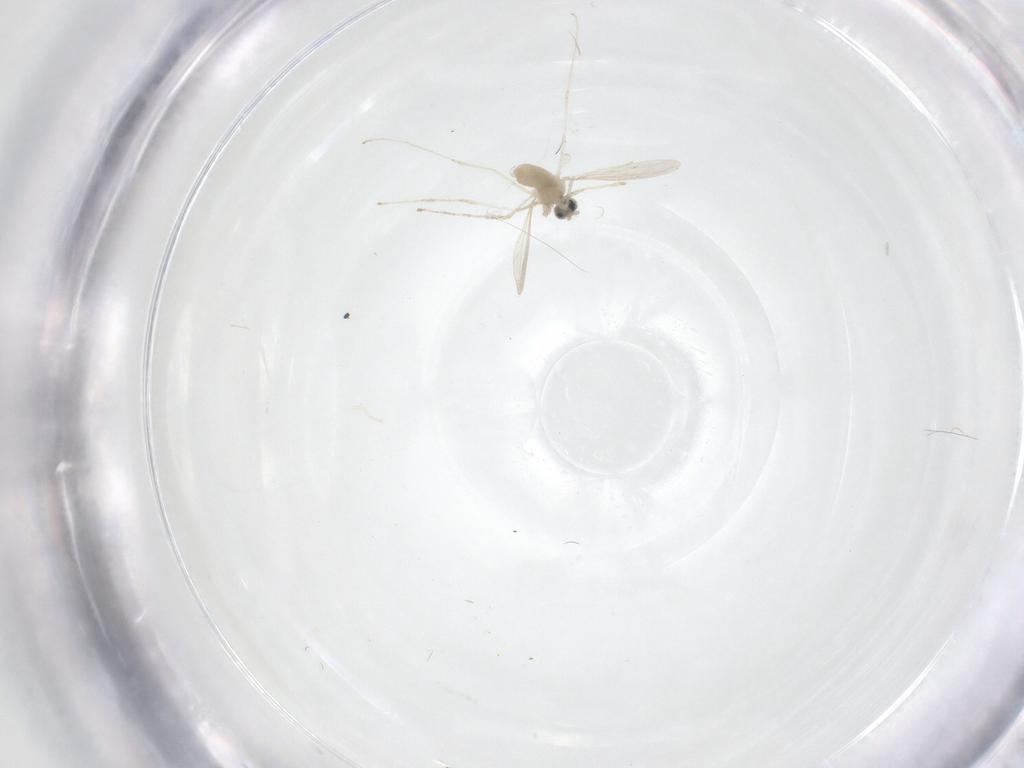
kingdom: Animalia
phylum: Arthropoda
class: Insecta
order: Diptera
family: Cecidomyiidae
